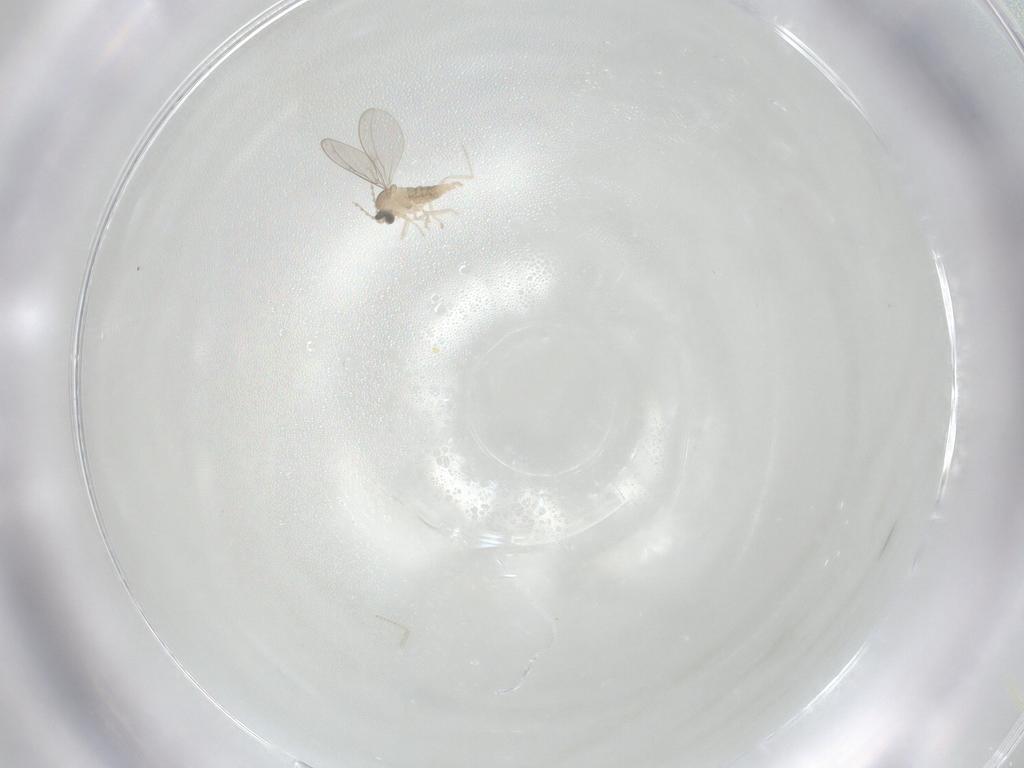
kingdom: Animalia
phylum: Arthropoda
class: Insecta
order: Diptera
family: Cecidomyiidae
